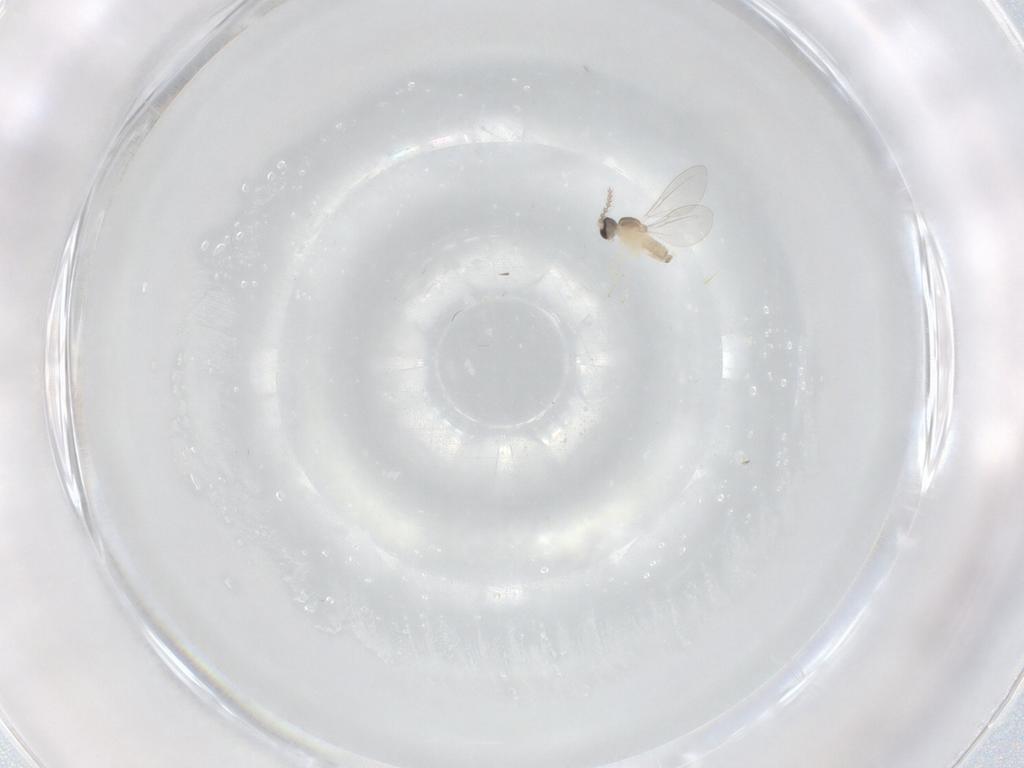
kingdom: Animalia
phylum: Arthropoda
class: Insecta
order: Diptera
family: Cecidomyiidae
